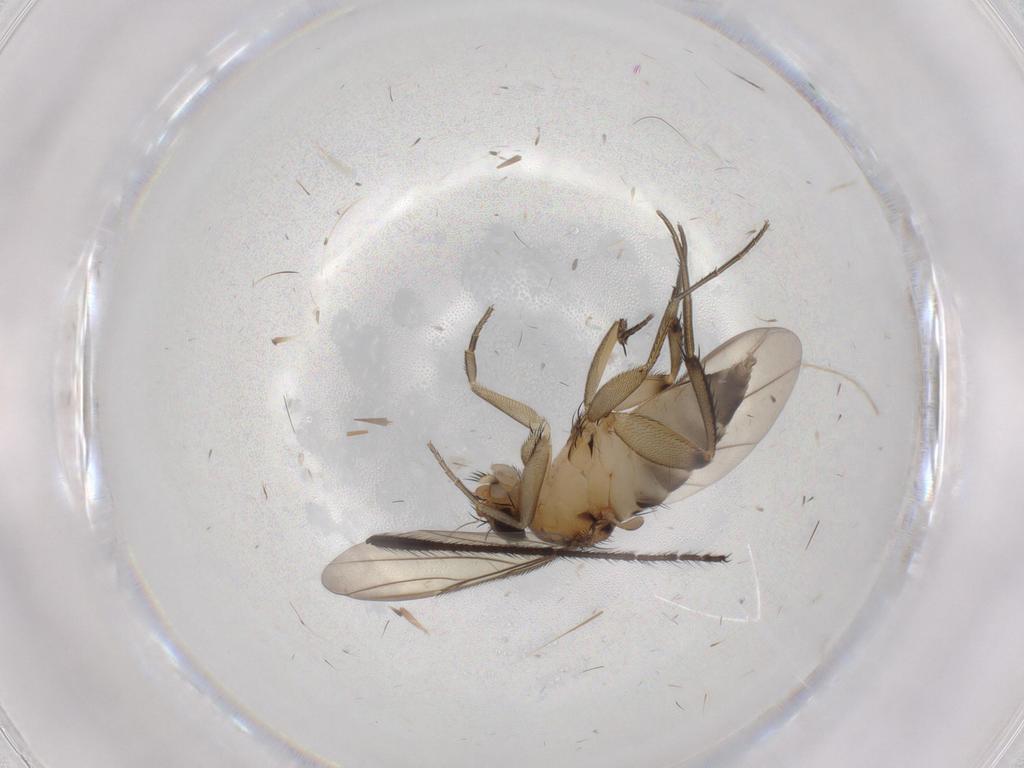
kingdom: Animalia
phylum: Arthropoda
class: Insecta
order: Diptera
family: Phoridae
